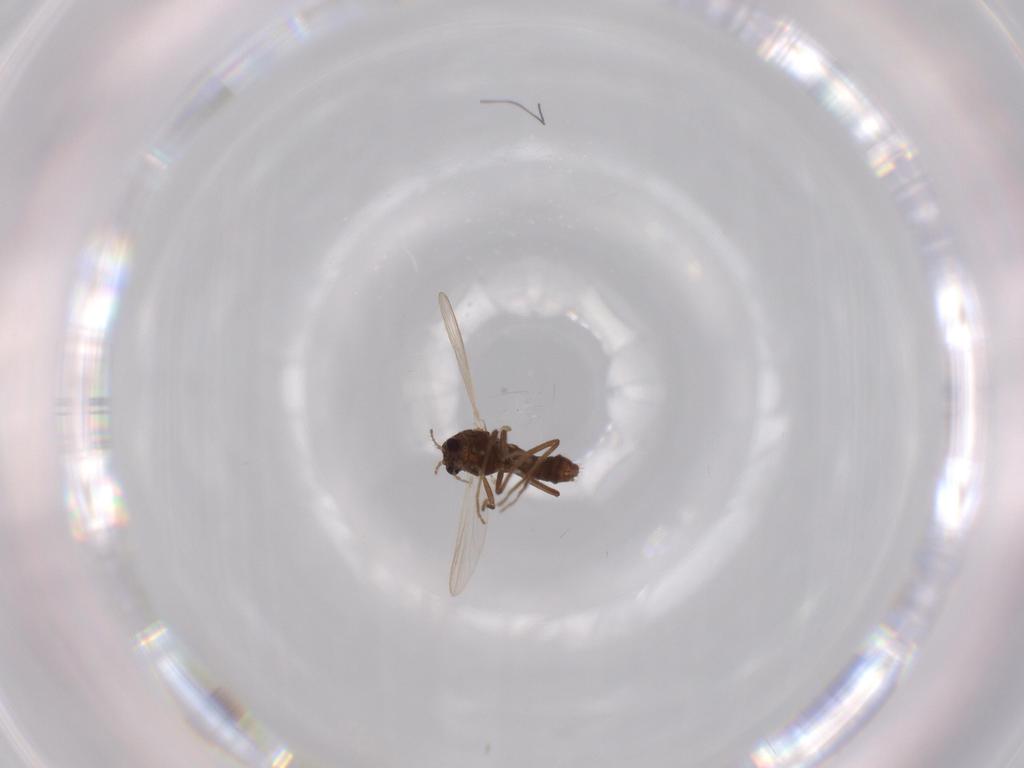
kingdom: Animalia
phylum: Arthropoda
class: Insecta
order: Diptera
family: Chironomidae
